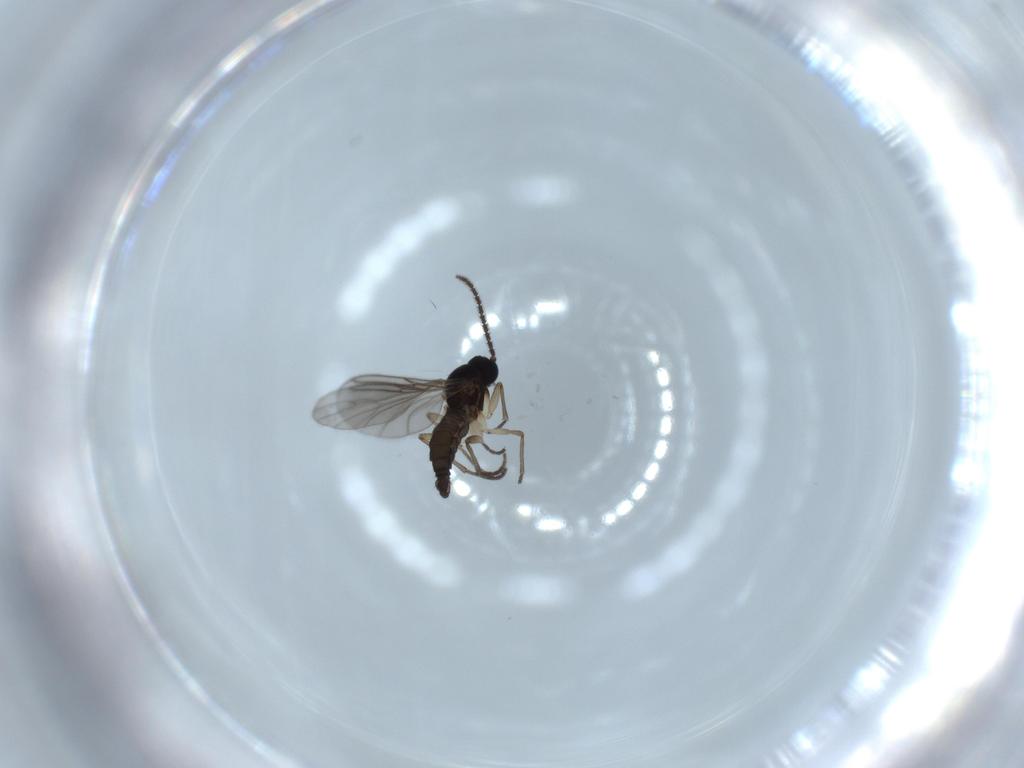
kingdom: Animalia
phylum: Arthropoda
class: Insecta
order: Diptera
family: Sciaridae
